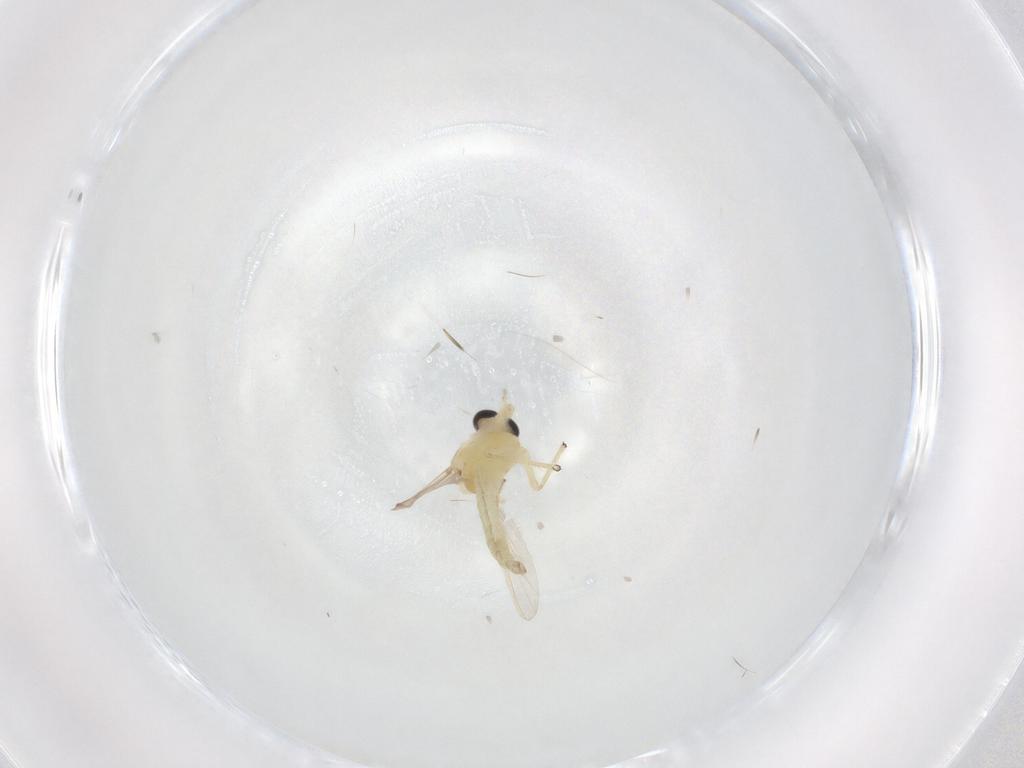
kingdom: Animalia
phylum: Arthropoda
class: Insecta
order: Diptera
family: Chironomidae
